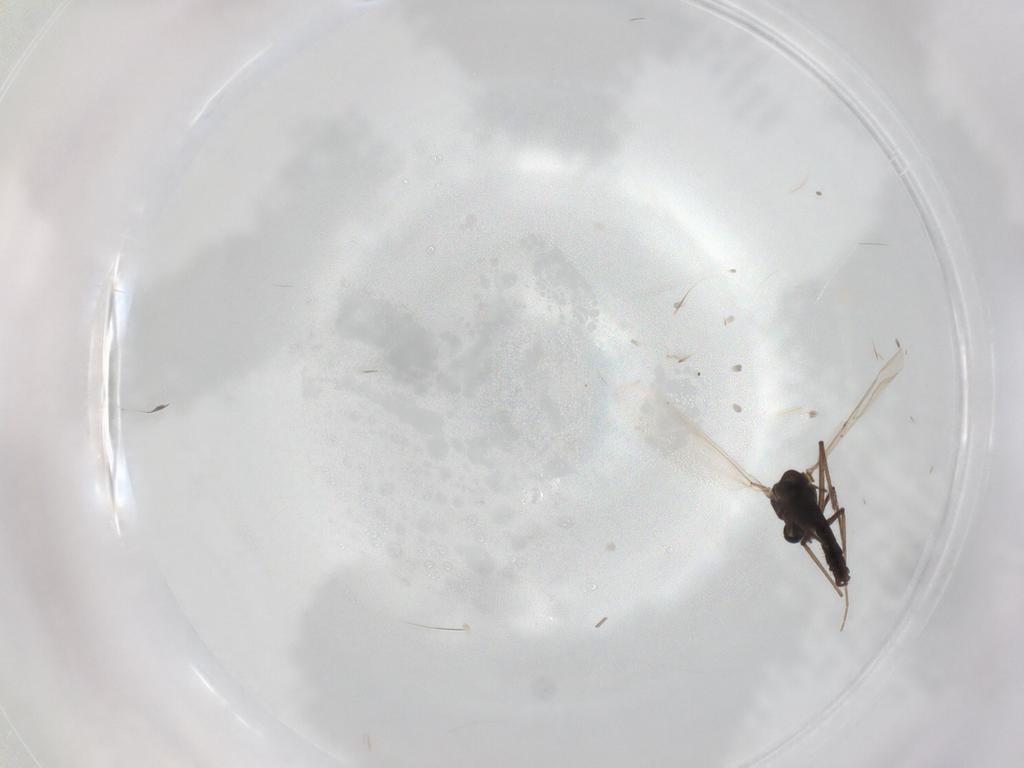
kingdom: Animalia
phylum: Arthropoda
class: Insecta
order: Diptera
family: Chironomidae
